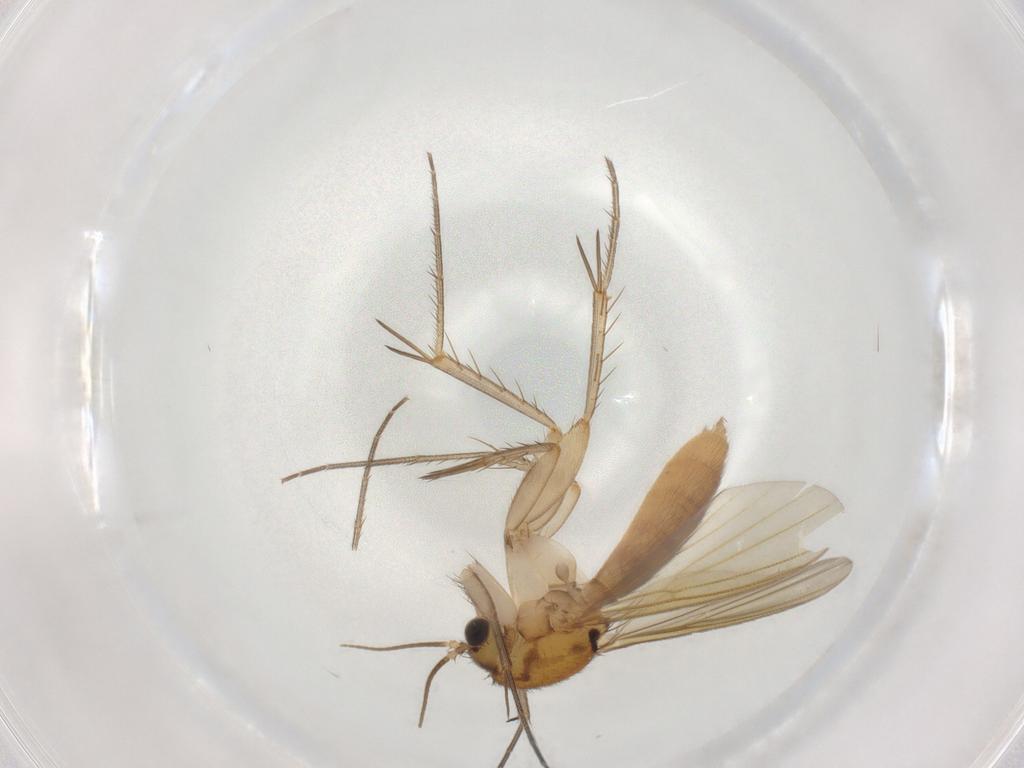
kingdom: Animalia
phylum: Arthropoda
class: Insecta
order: Diptera
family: Mycetophilidae
